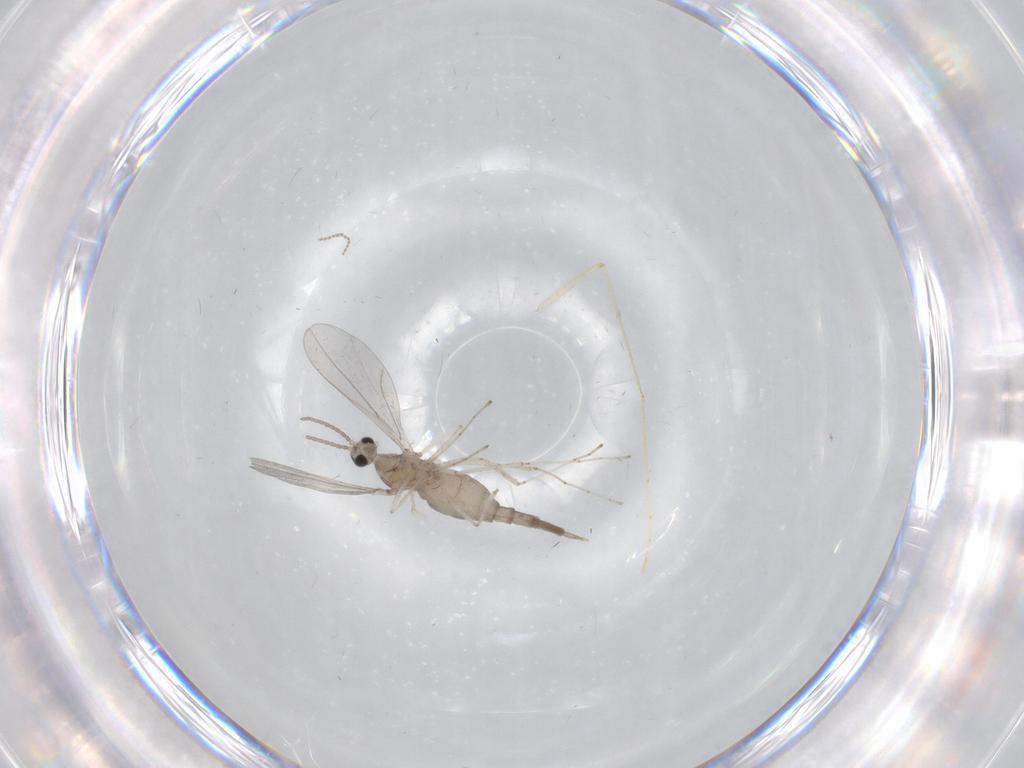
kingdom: Animalia
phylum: Arthropoda
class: Insecta
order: Diptera
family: Psychodidae
